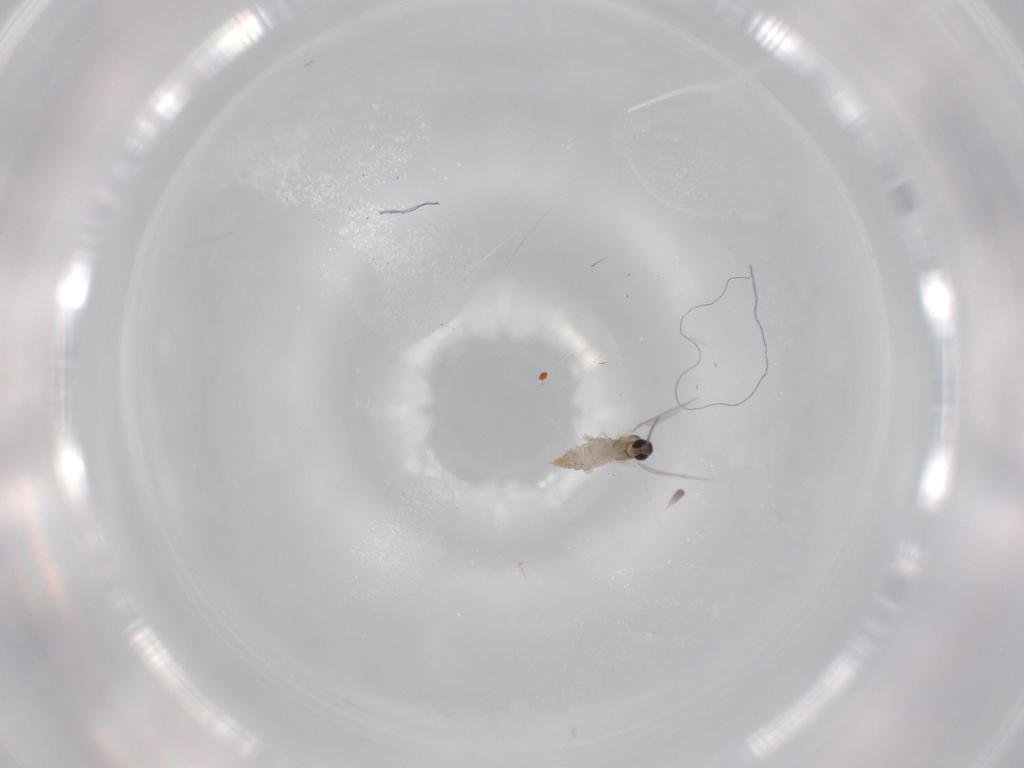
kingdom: Animalia
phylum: Arthropoda
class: Insecta
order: Diptera
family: Cecidomyiidae
